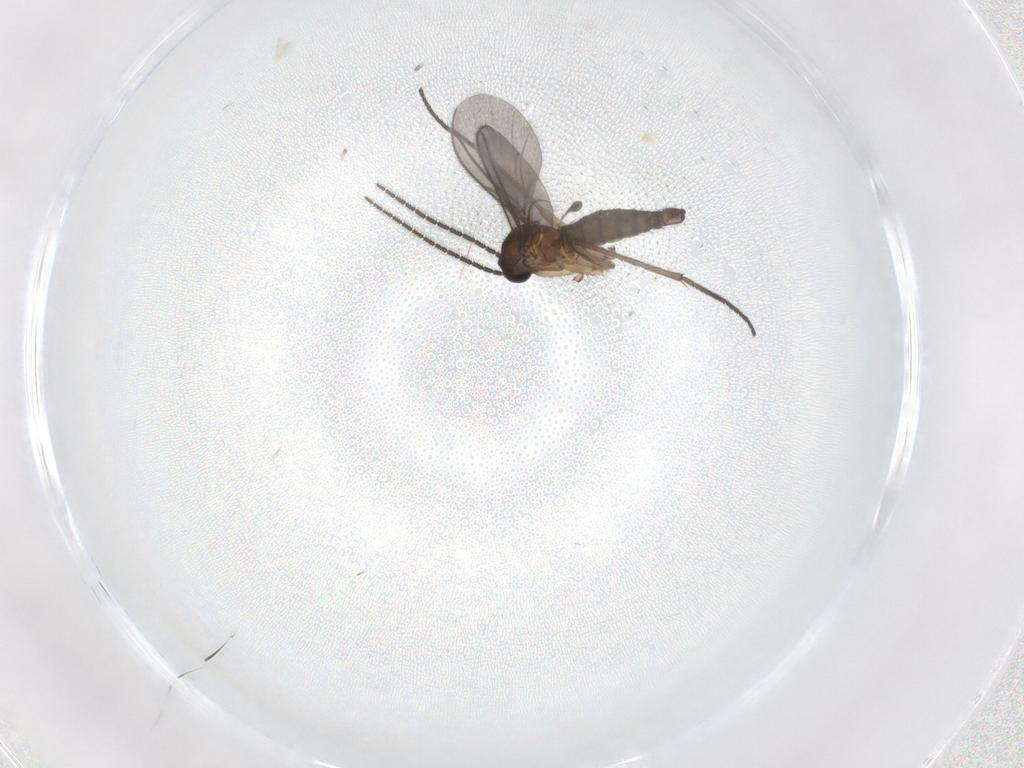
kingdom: Animalia
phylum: Arthropoda
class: Insecta
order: Diptera
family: Sciaridae
